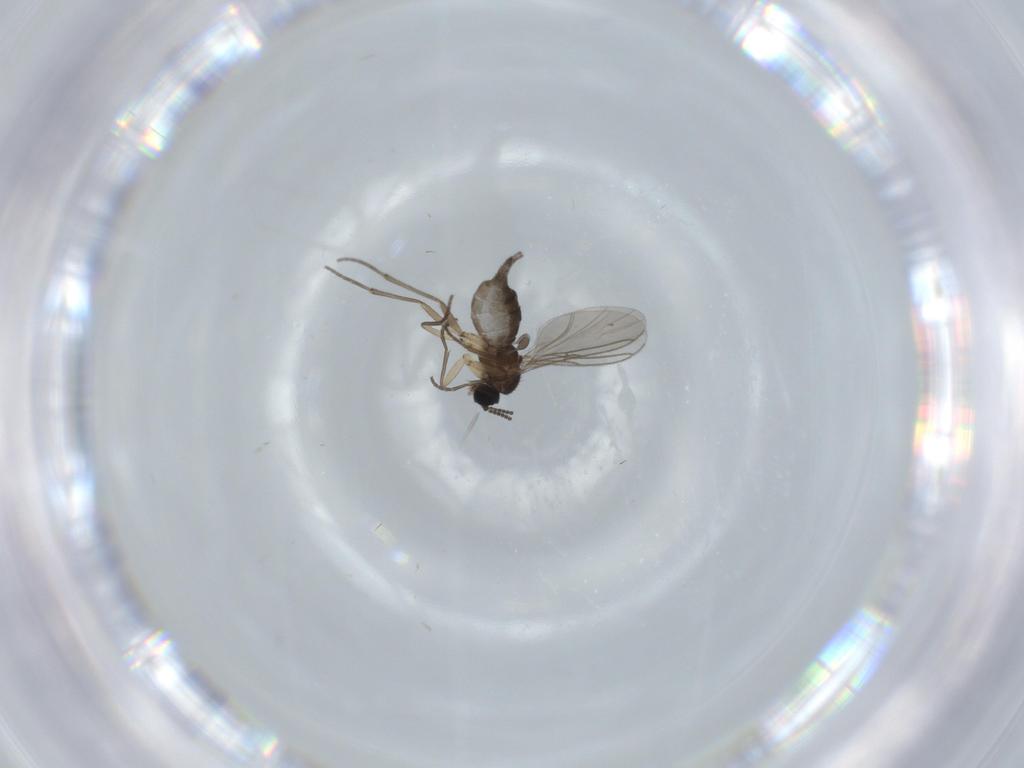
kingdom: Animalia
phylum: Arthropoda
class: Insecta
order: Diptera
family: Sciaridae
